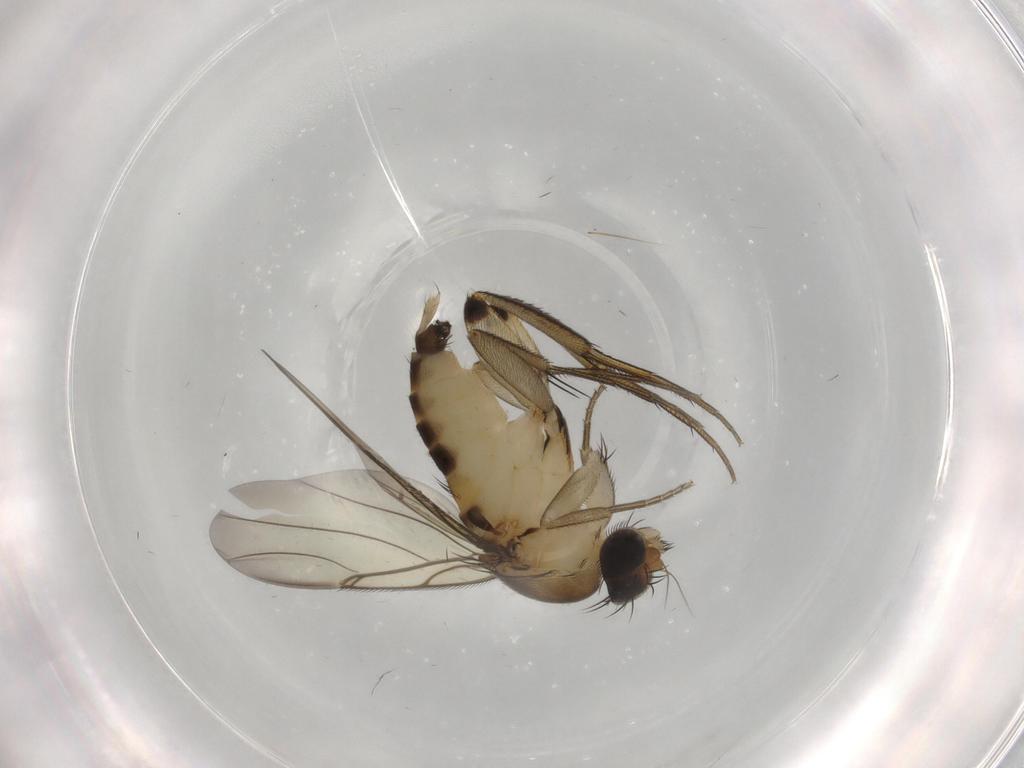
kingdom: Animalia
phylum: Arthropoda
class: Insecta
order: Diptera
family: Phoridae
